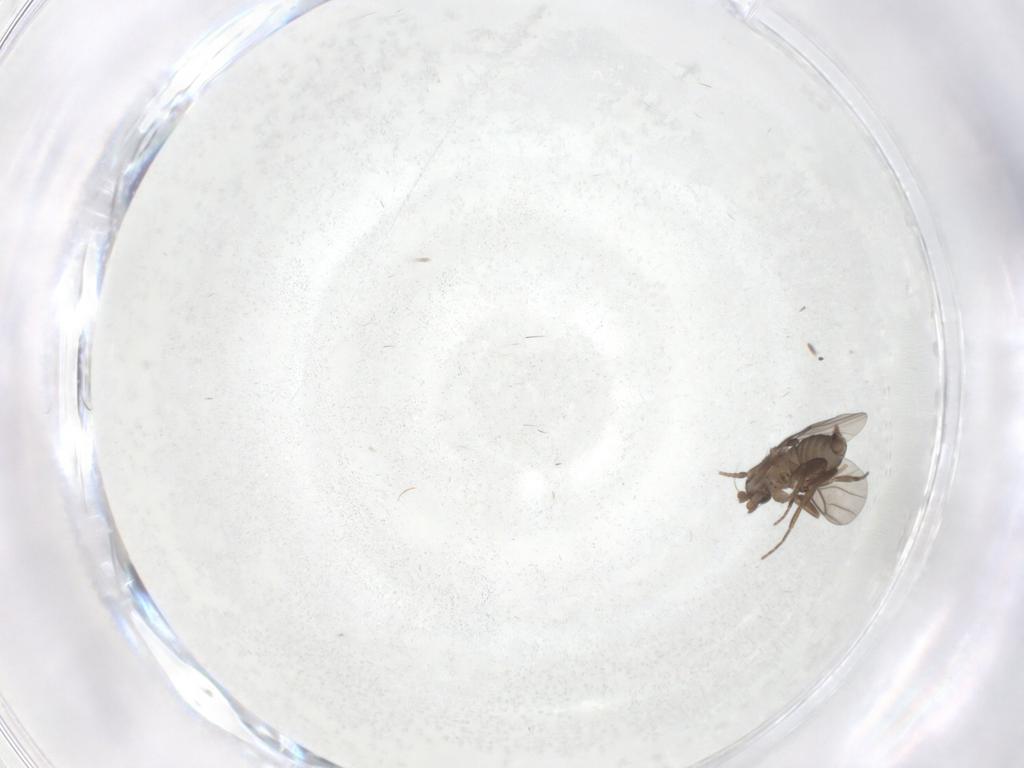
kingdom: Animalia
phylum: Arthropoda
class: Insecta
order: Diptera
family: Phoridae
